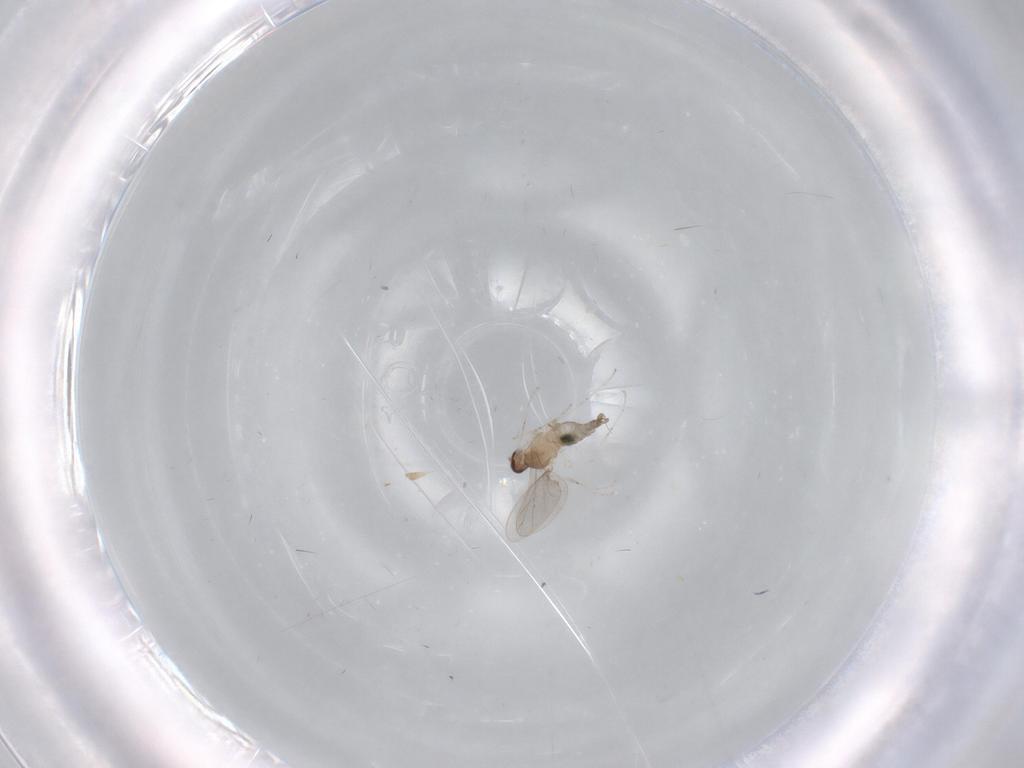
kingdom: Animalia
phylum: Arthropoda
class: Insecta
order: Diptera
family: Cecidomyiidae
